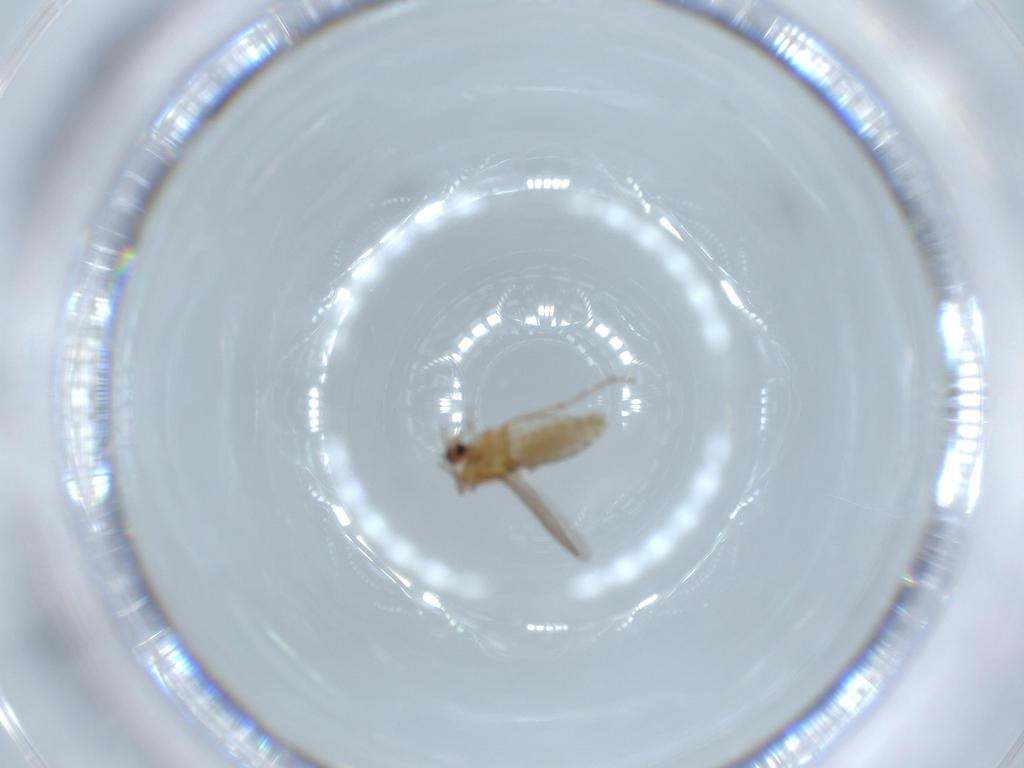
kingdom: Animalia
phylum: Arthropoda
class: Insecta
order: Diptera
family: Chironomidae
